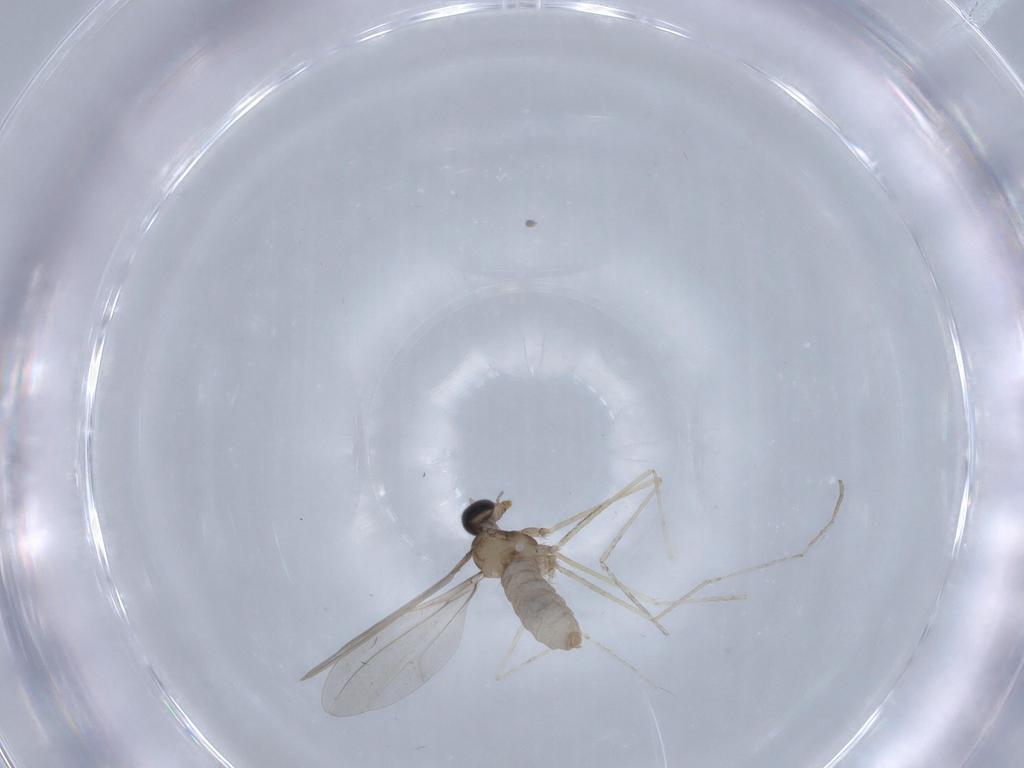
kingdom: Animalia
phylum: Arthropoda
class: Insecta
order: Diptera
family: Cecidomyiidae
